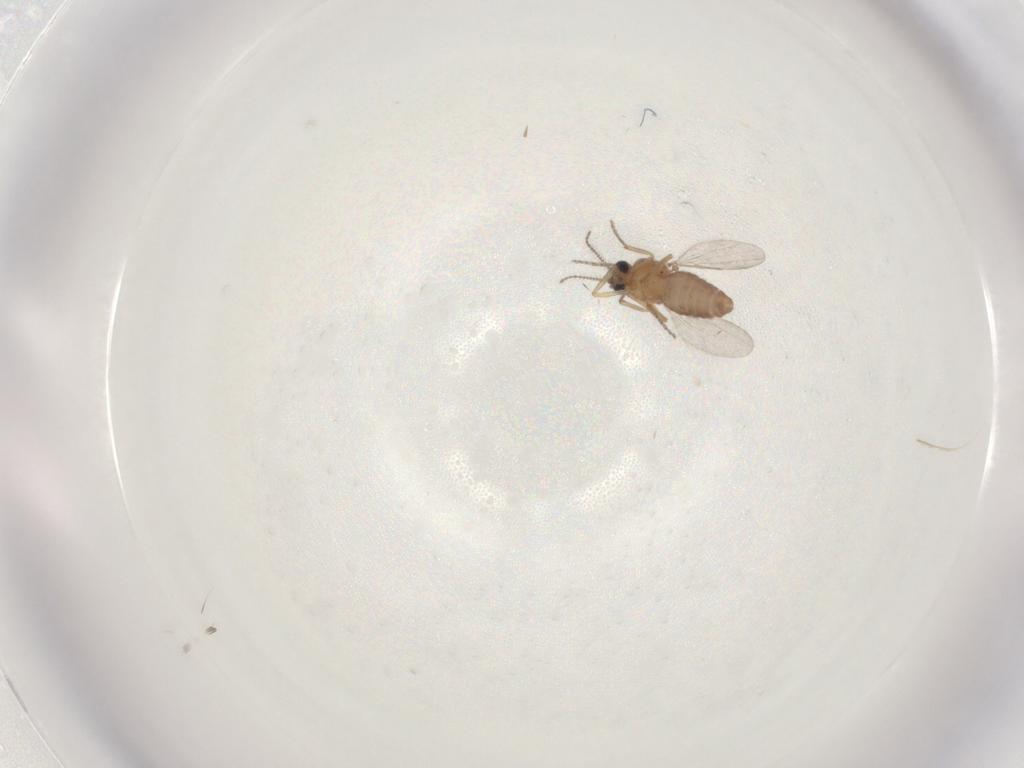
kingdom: Animalia
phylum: Arthropoda
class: Insecta
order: Diptera
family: Ceratopogonidae
